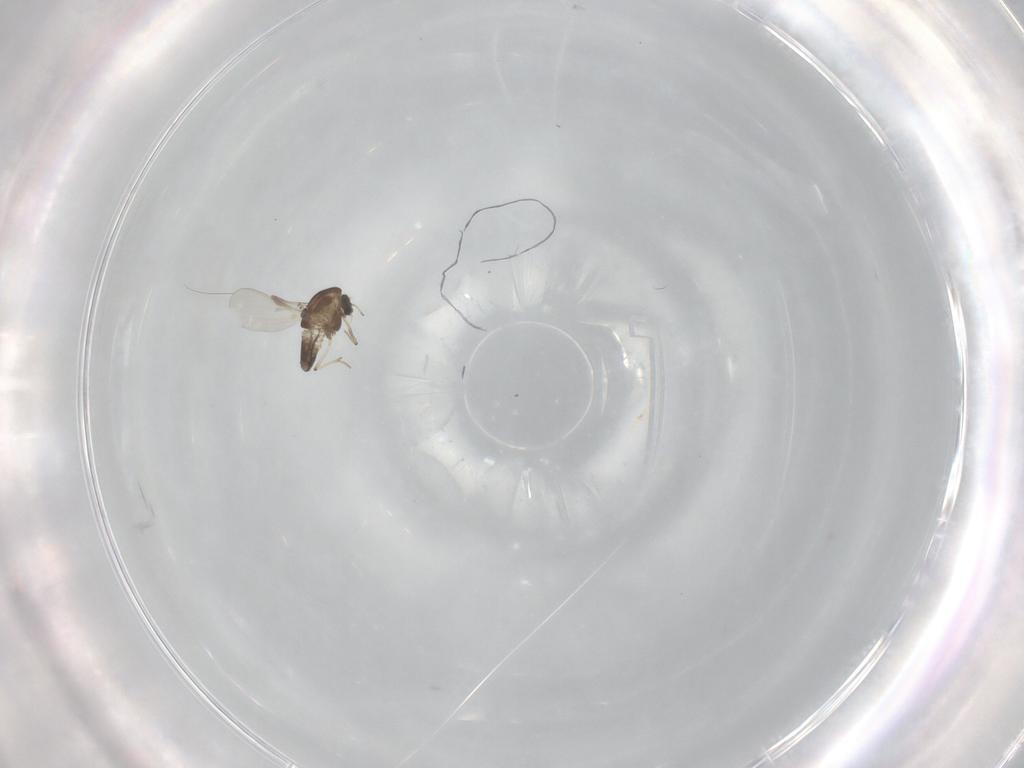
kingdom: Animalia
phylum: Arthropoda
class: Insecta
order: Diptera
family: Chironomidae
